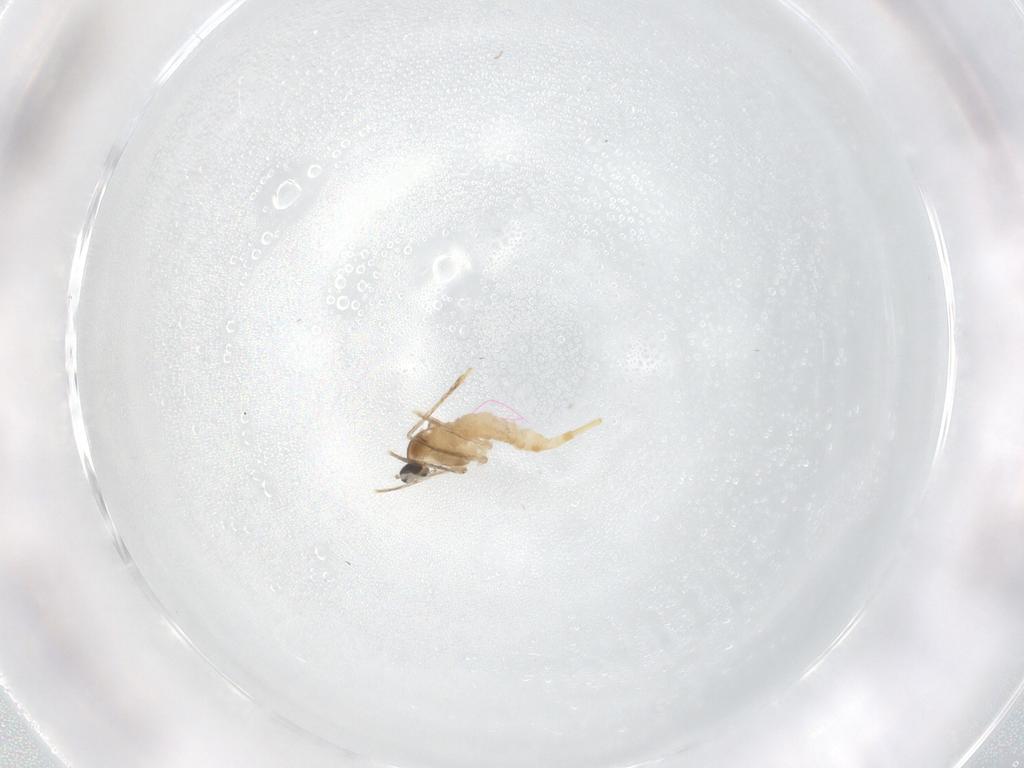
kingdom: Animalia
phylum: Arthropoda
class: Insecta
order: Diptera
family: Cecidomyiidae
